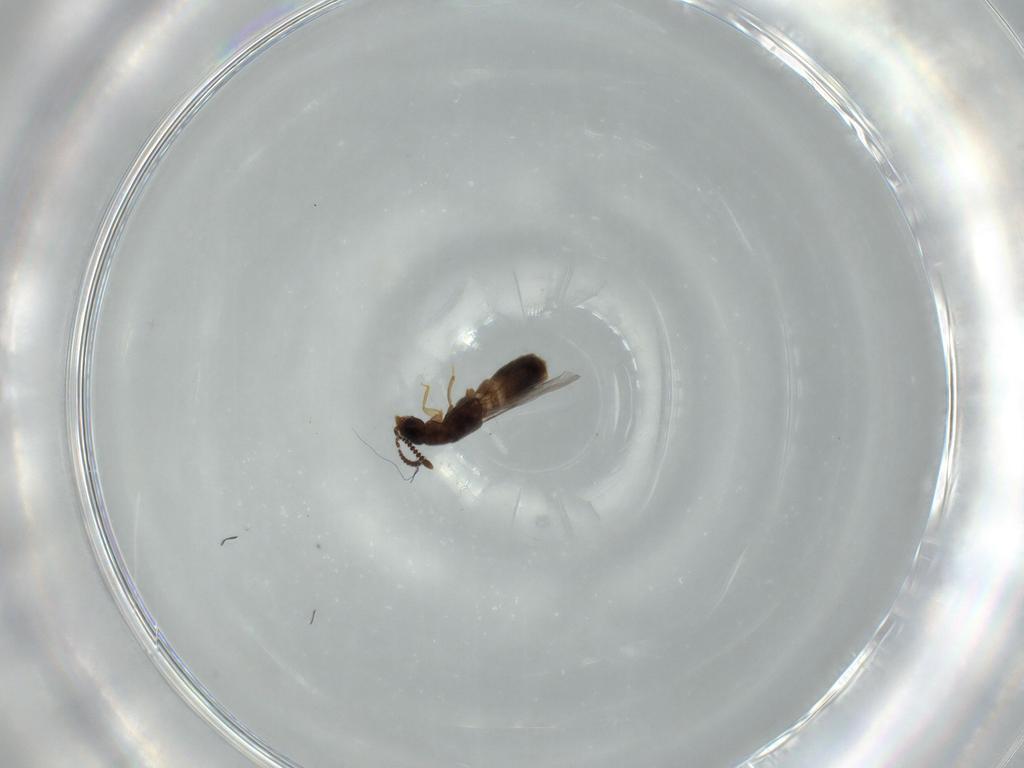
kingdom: Animalia
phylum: Arthropoda
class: Insecta
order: Coleoptera
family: Staphylinidae
